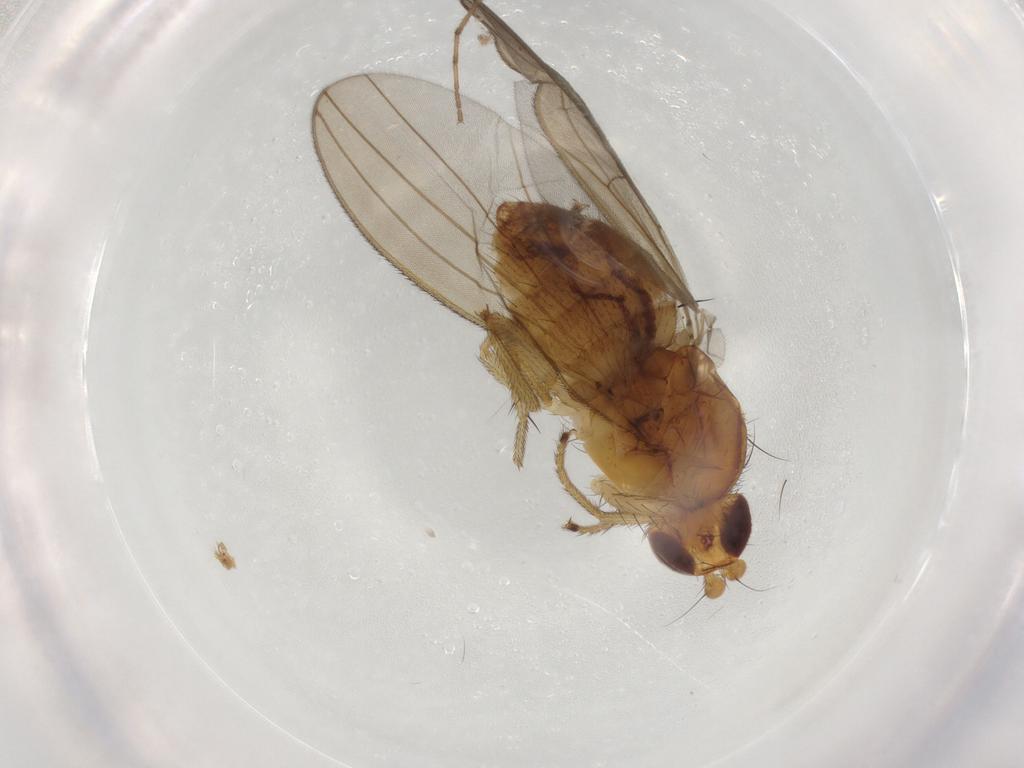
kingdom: Animalia
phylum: Arthropoda
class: Insecta
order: Diptera
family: Natalimyzidae
